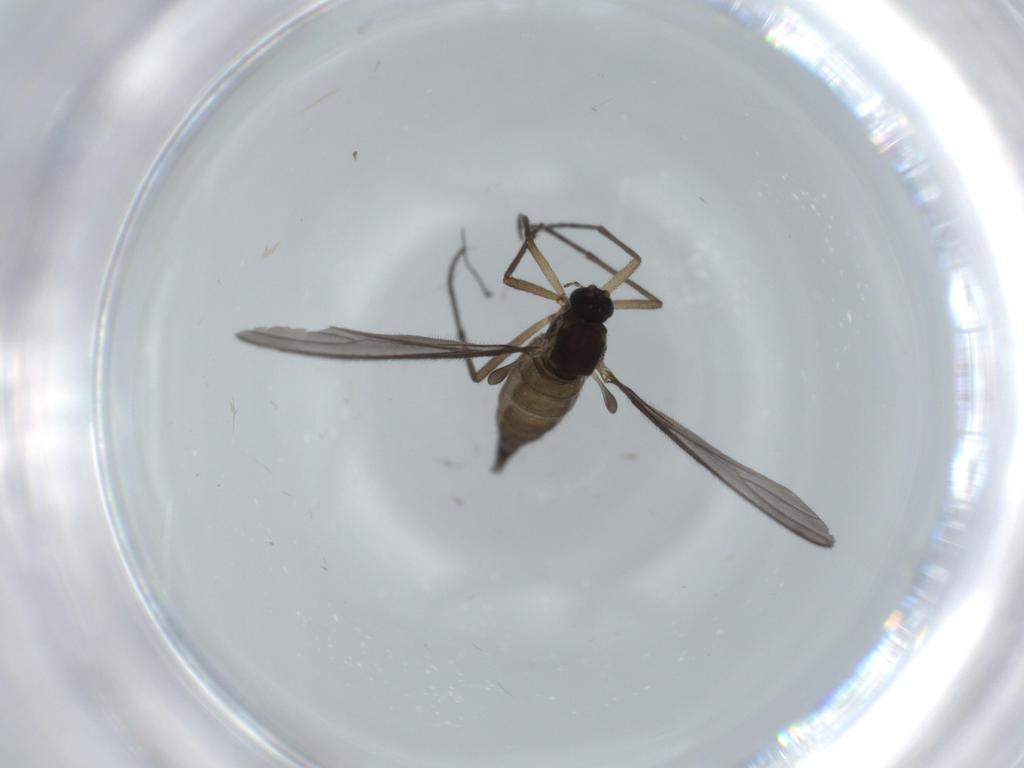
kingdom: Animalia
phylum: Arthropoda
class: Insecta
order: Diptera
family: Sciaridae
